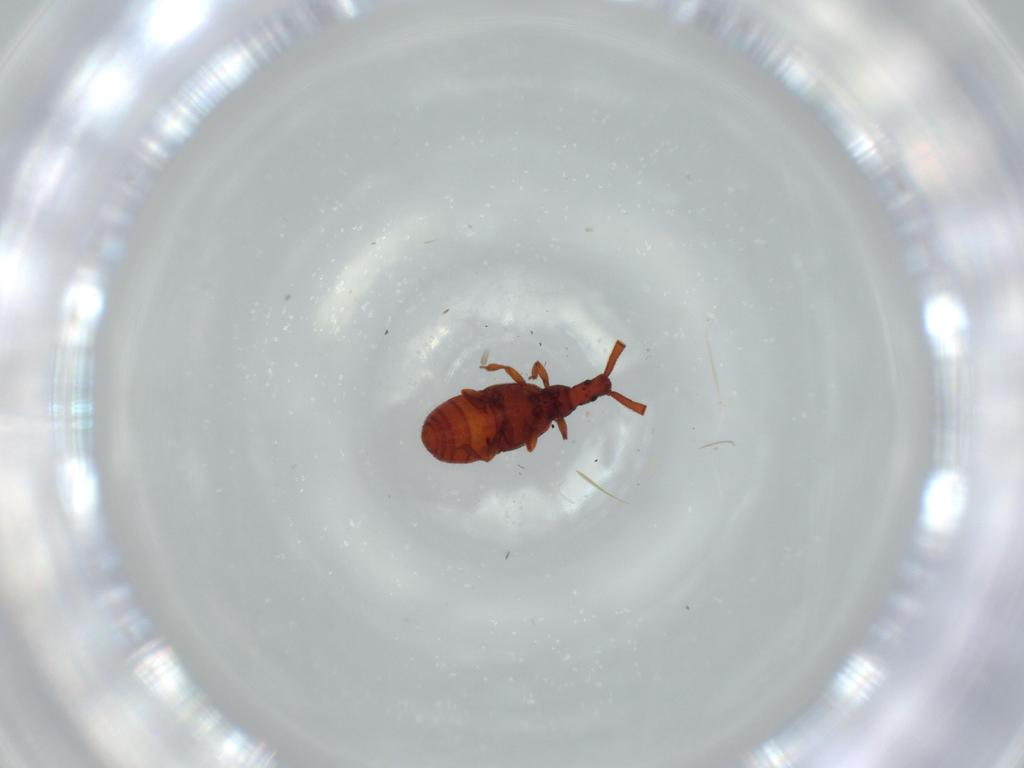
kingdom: Animalia
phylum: Arthropoda
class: Insecta
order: Coleoptera
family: Staphylinidae
